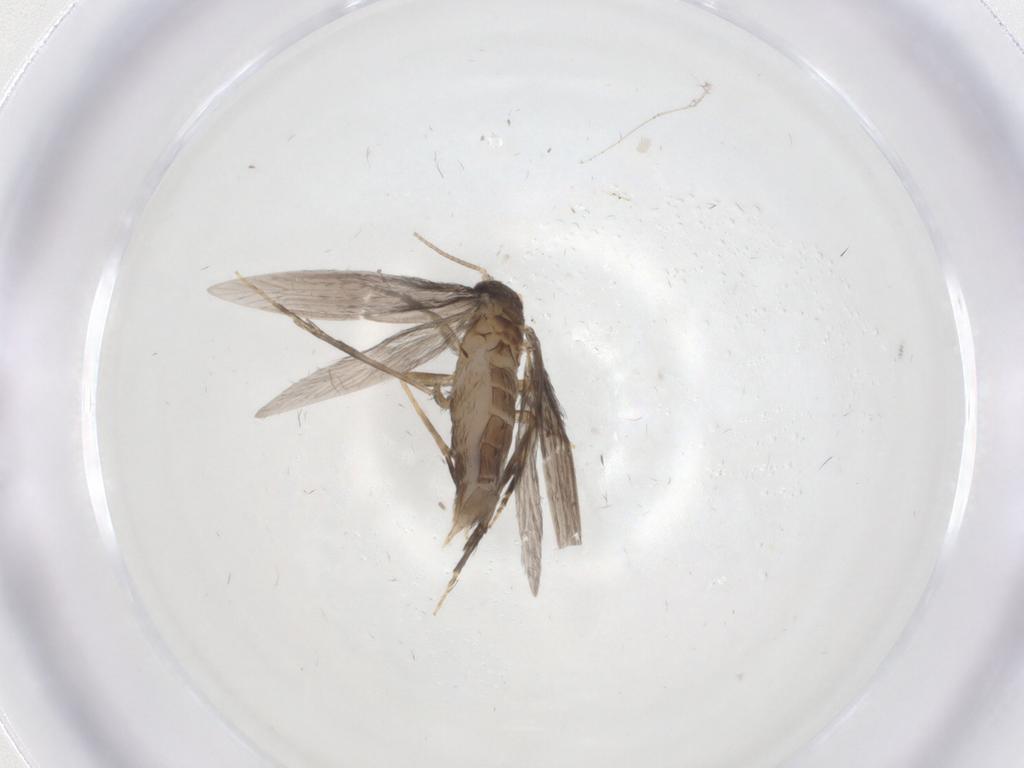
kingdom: Animalia
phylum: Arthropoda
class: Insecta
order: Trichoptera
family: Hydroptilidae
